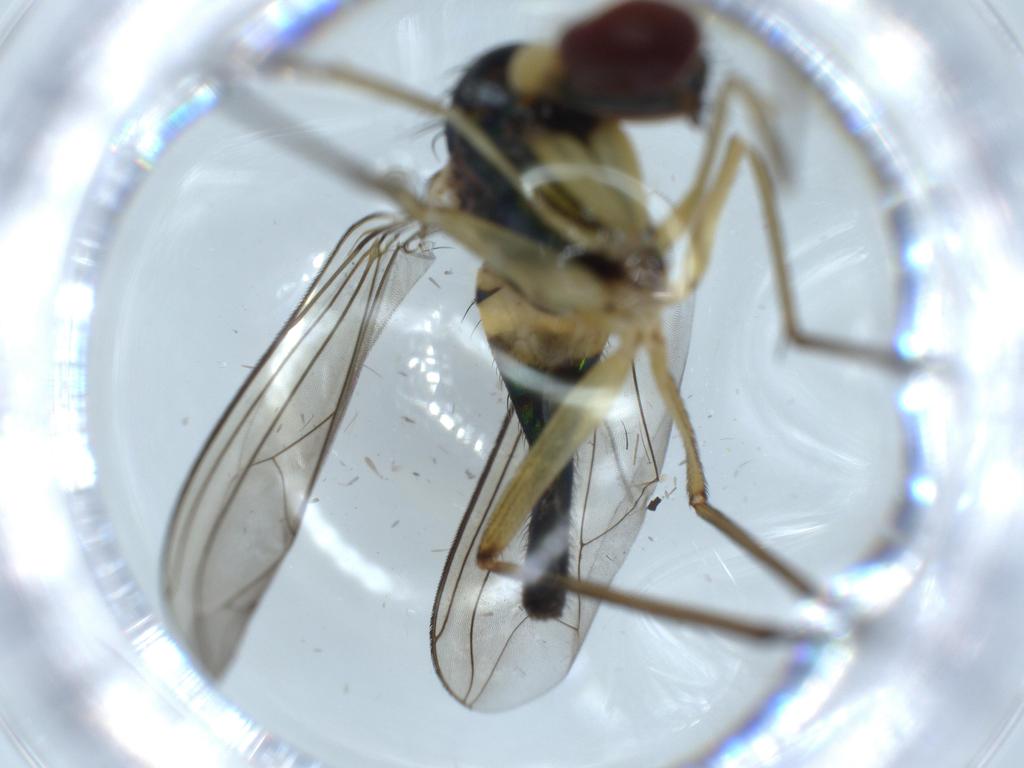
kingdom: Animalia
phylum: Arthropoda
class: Insecta
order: Diptera
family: Dolichopodidae
